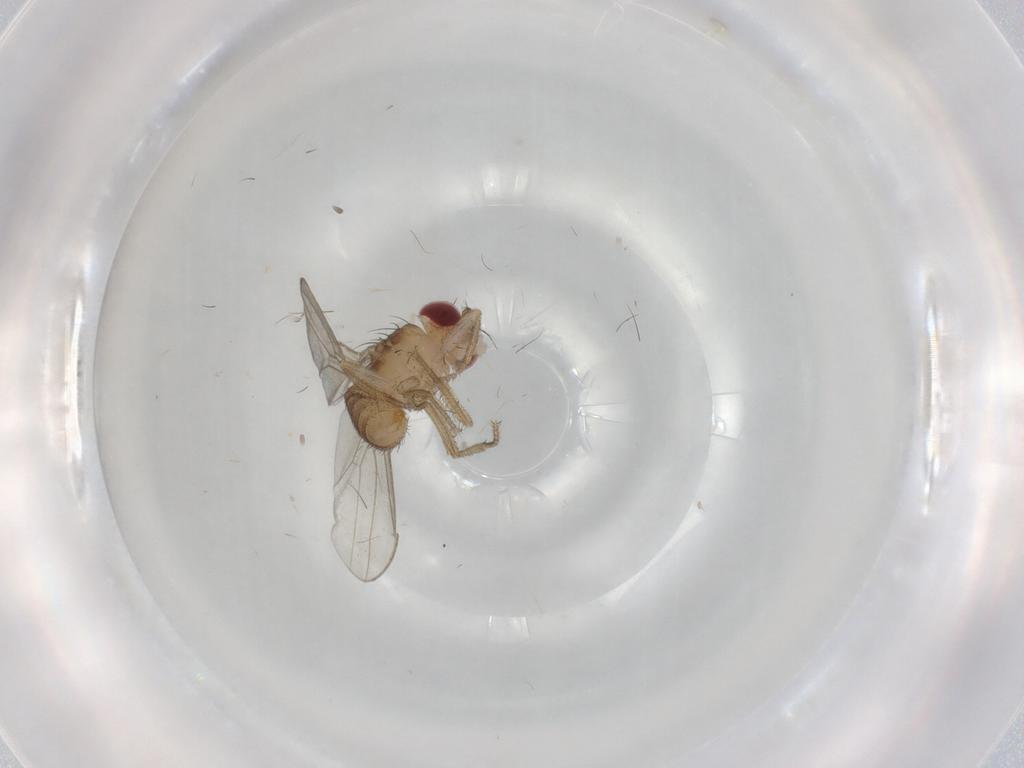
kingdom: Animalia
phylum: Arthropoda
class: Insecta
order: Diptera
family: Drosophilidae
